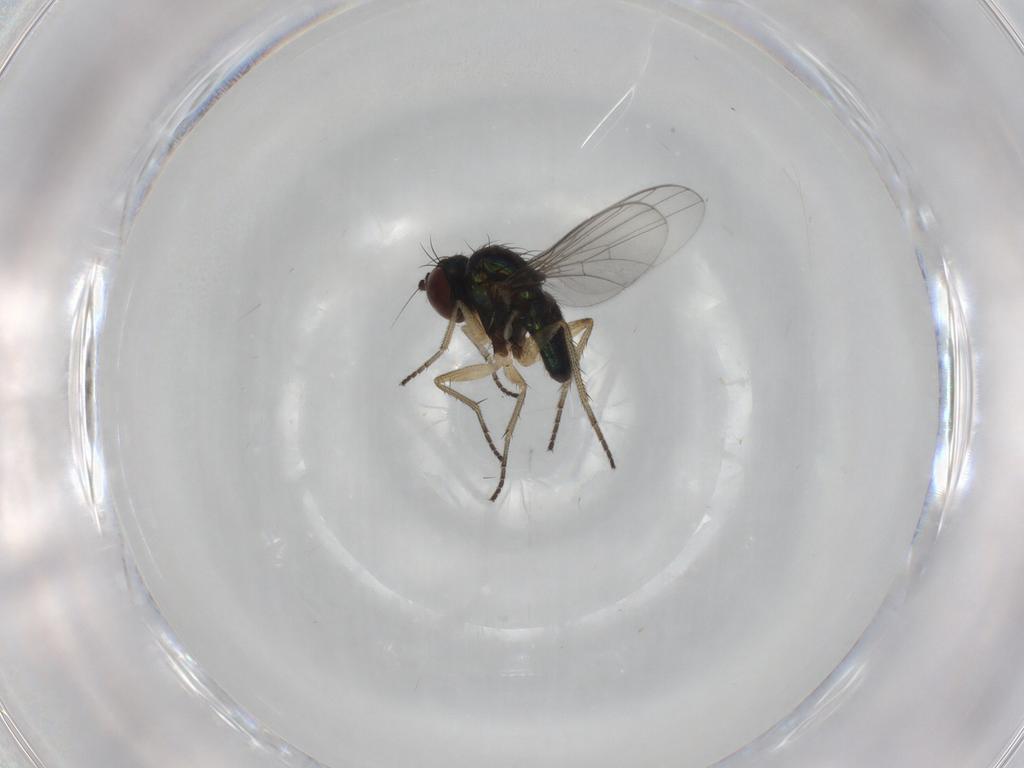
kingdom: Animalia
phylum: Arthropoda
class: Insecta
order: Diptera
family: Dolichopodidae
